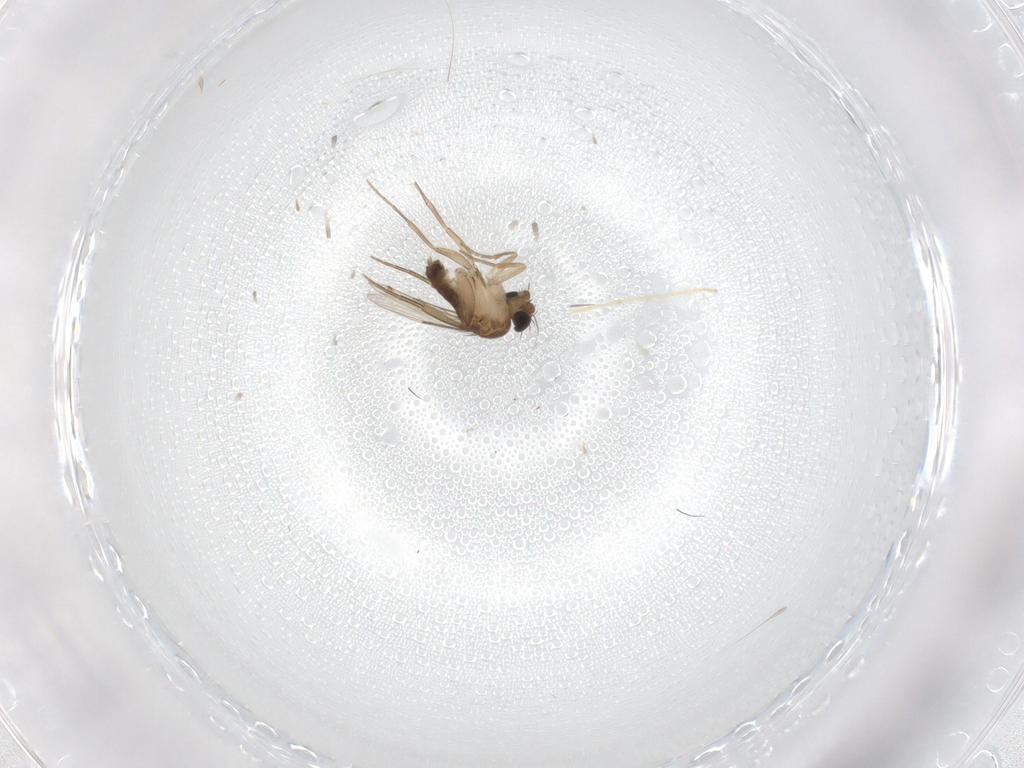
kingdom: Animalia
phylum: Arthropoda
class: Insecta
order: Diptera
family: Phoridae
